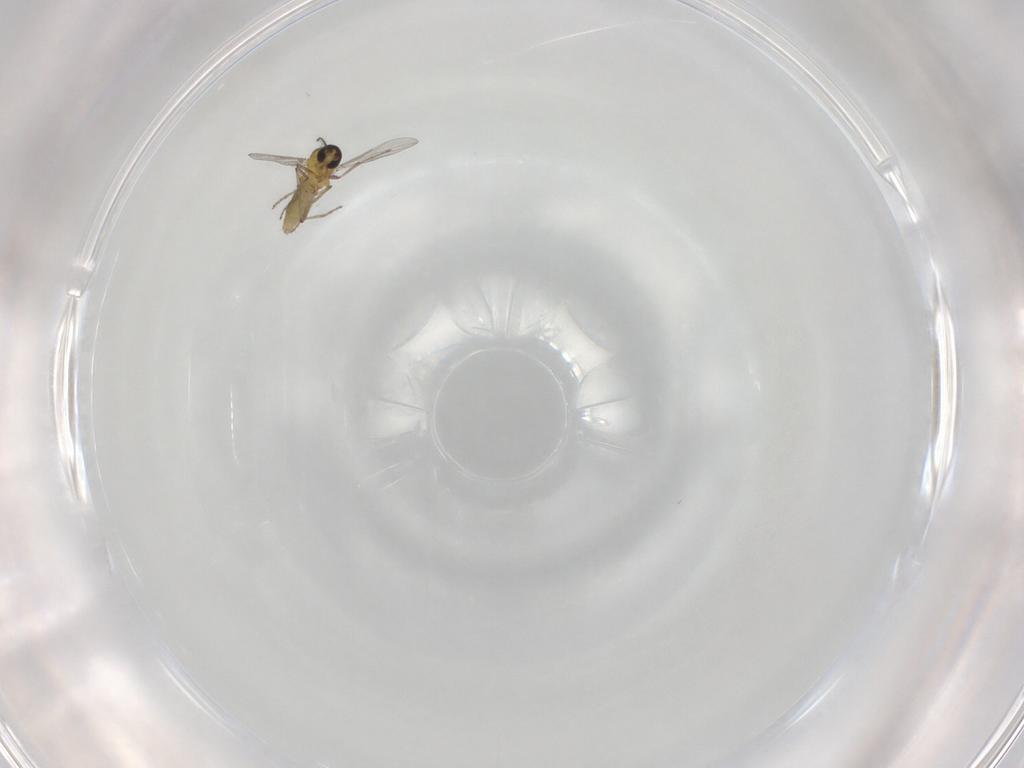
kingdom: Animalia
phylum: Arthropoda
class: Insecta
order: Diptera
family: Ceratopogonidae
